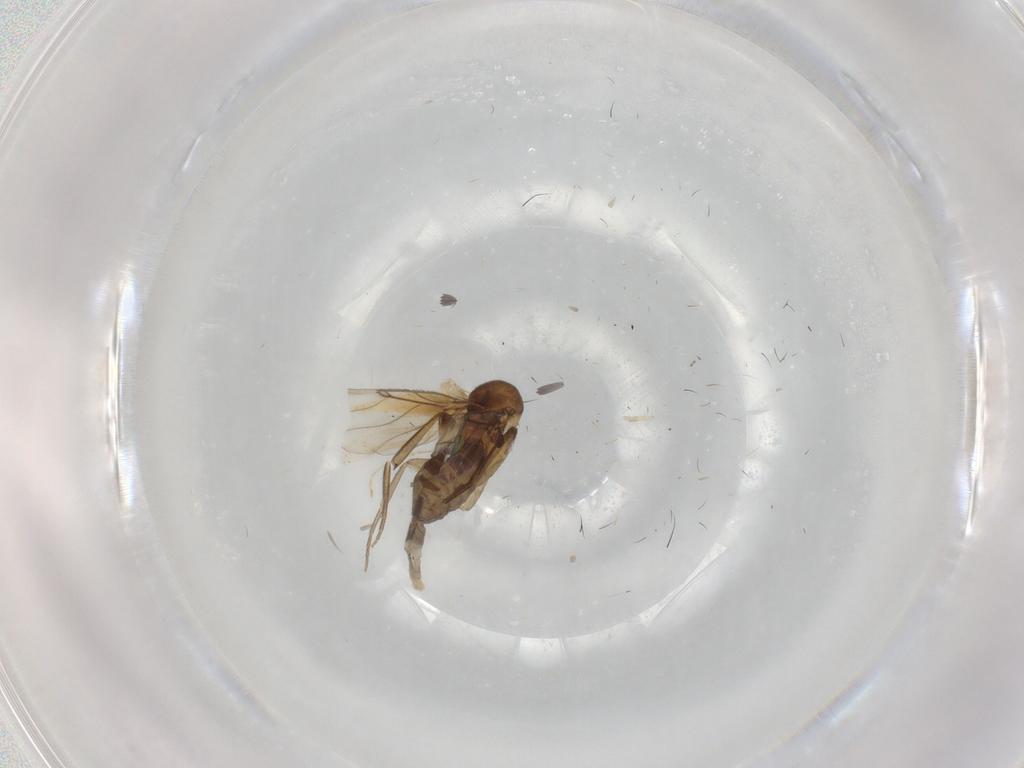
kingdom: Animalia
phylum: Arthropoda
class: Insecta
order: Diptera
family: Cecidomyiidae
